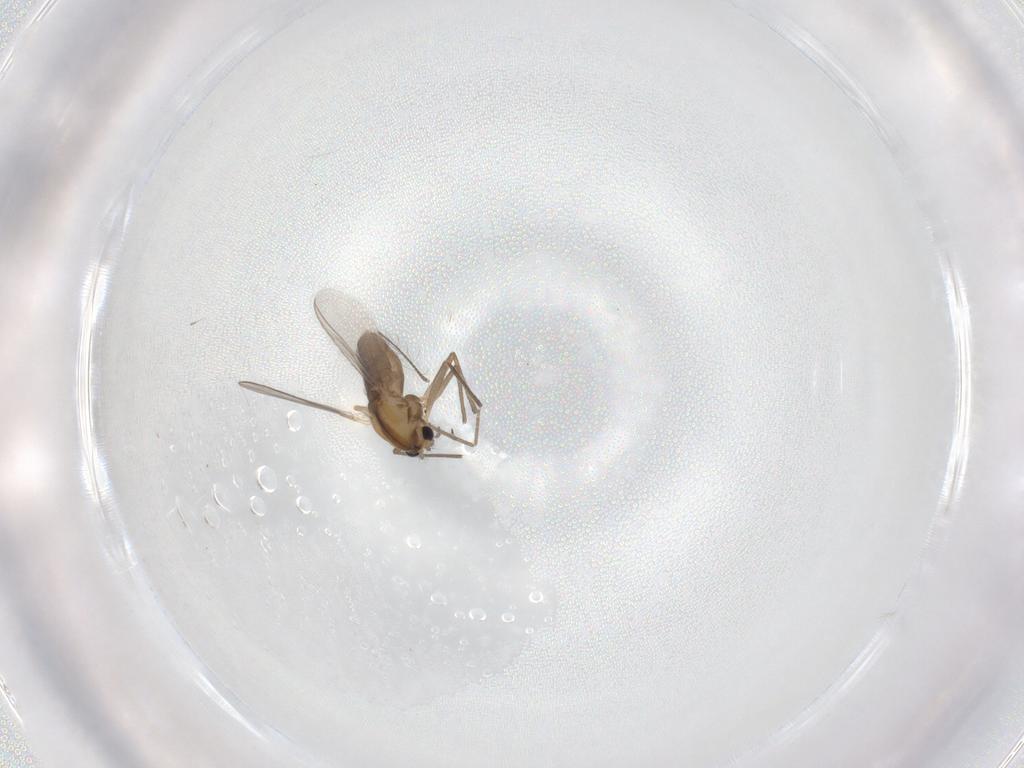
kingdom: Animalia
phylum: Arthropoda
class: Insecta
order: Diptera
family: Chironomidae
